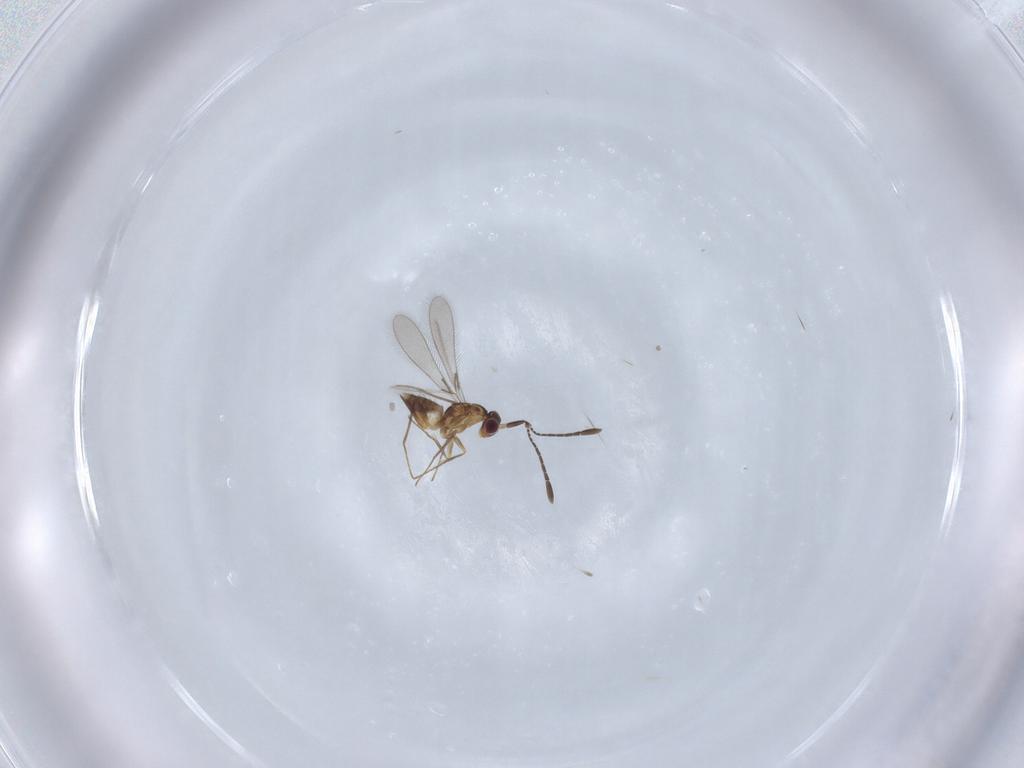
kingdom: Animalia
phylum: Arthropoda
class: Insecta
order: Hymenoptera
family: Mymaridae
